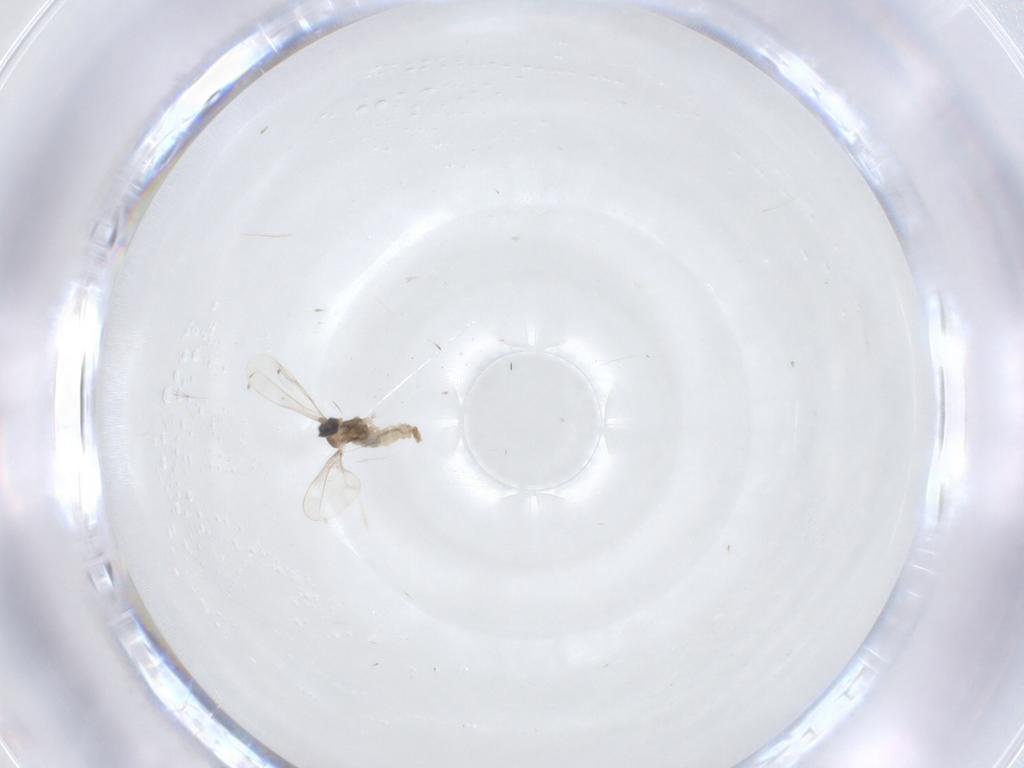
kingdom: Animalia
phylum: Arthropoda
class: Insecta
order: Diptera
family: Cecidomyiidae
